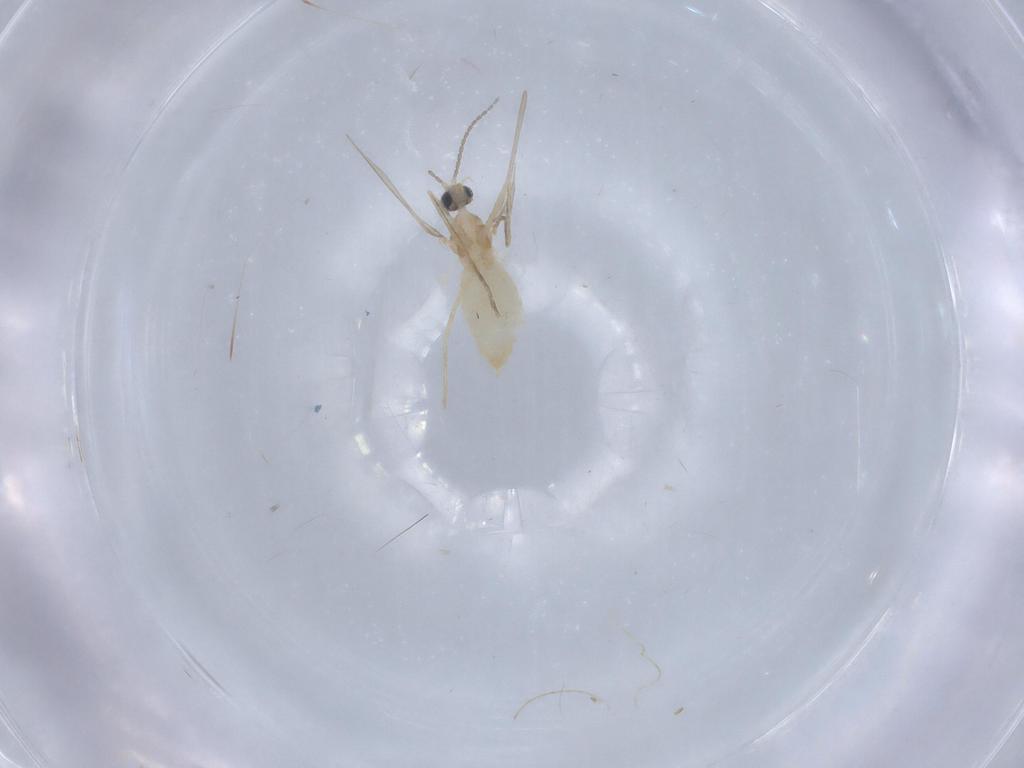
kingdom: Animalia
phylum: Arthropoda
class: Insecta
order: Diptera
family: Cecidomyiidae
